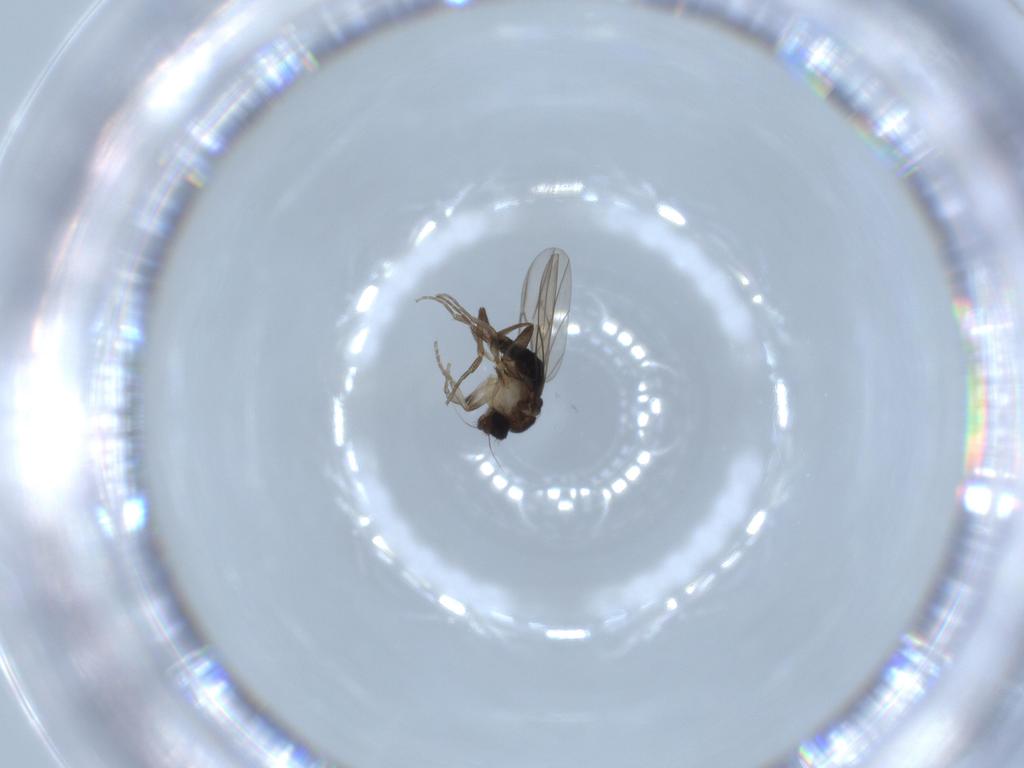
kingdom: Animalia
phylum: Arthropoda
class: Insecta
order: Diptera
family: Phoridae
